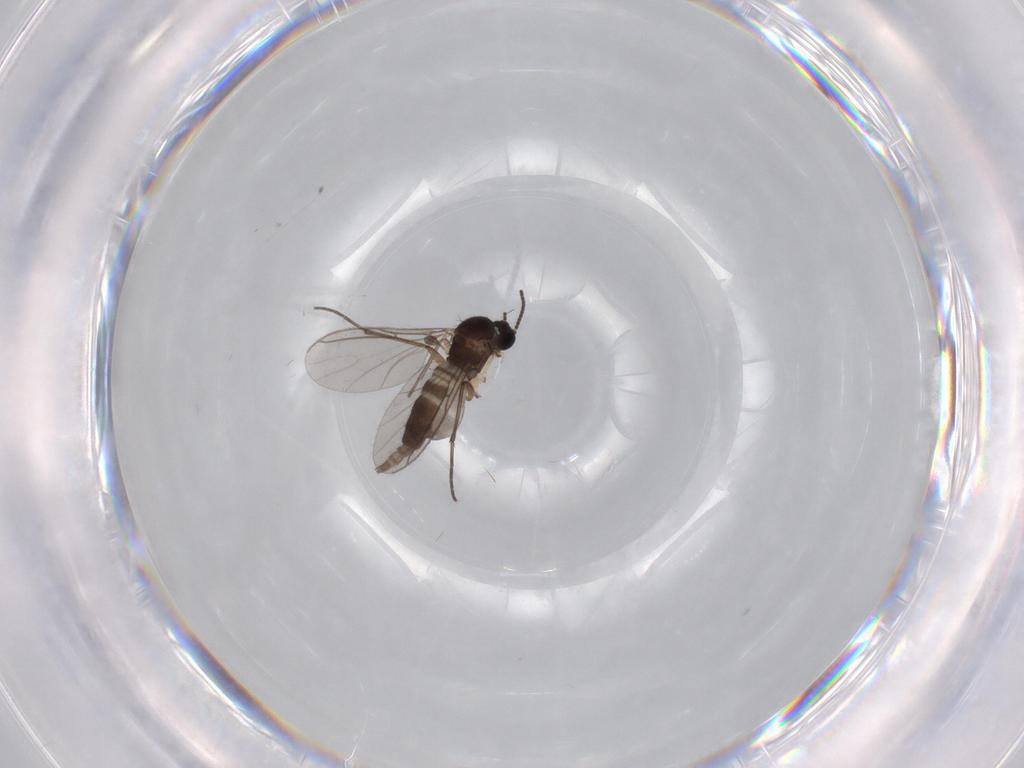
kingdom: Animalia
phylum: Arthropoda
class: Insecta
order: Diptera
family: Sciaridae
